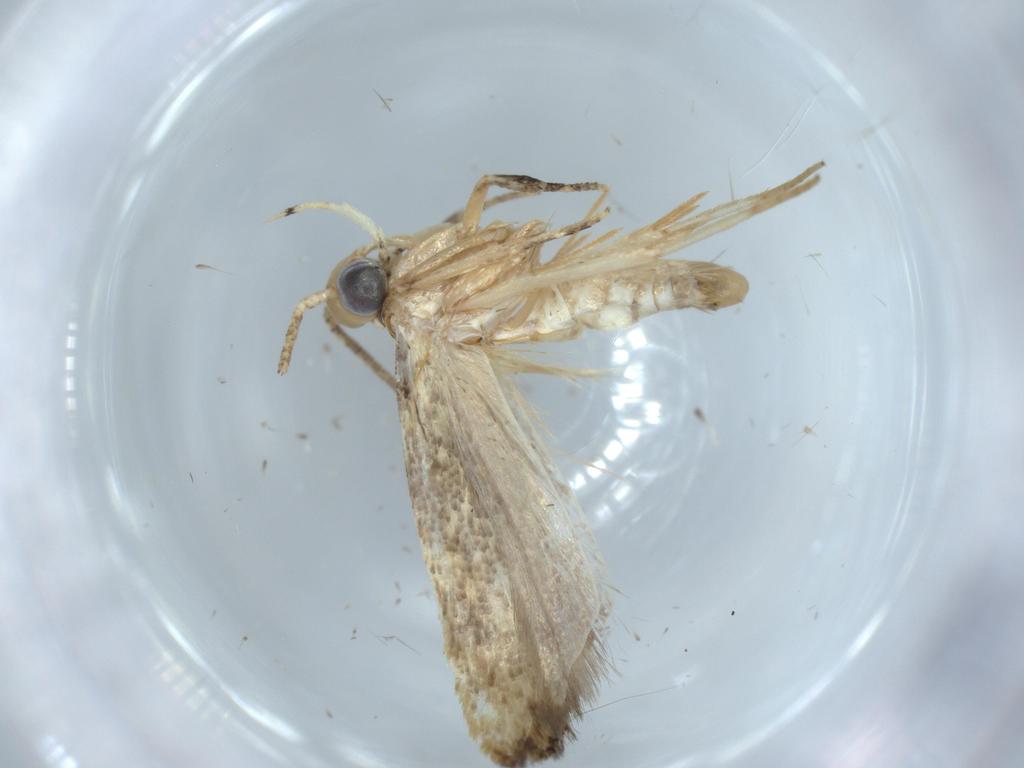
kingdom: Animalia
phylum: Arthropoda
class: Insecta
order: Lepidoptera
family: Tineidae
